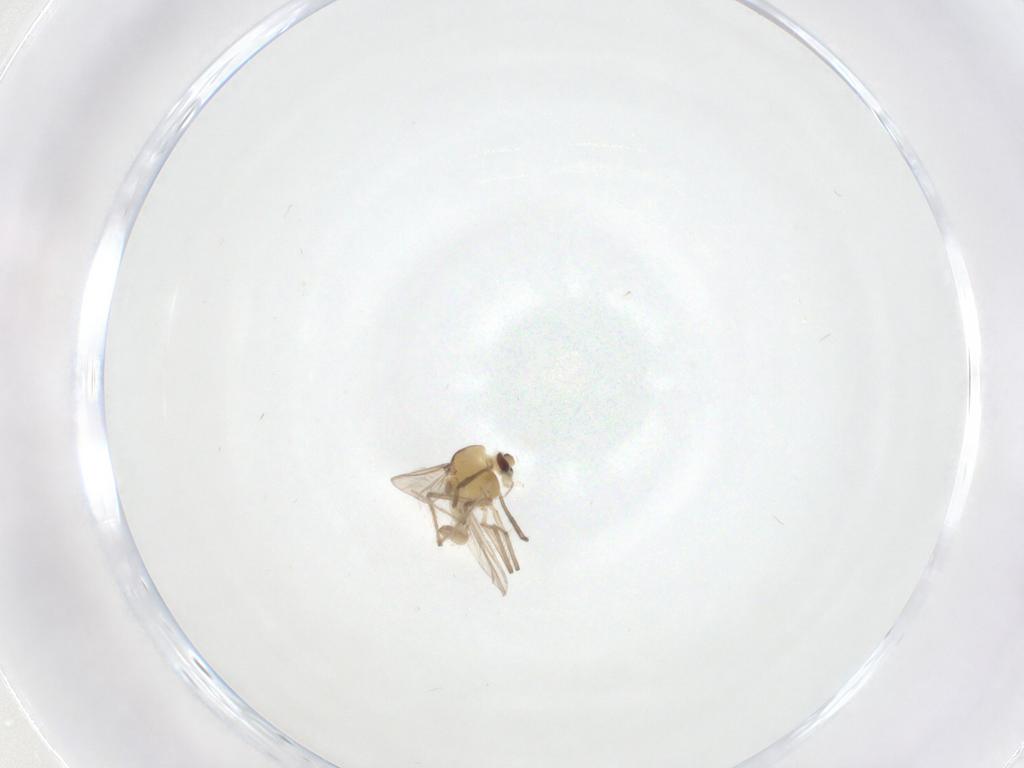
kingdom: Animalia
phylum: Arthropoda
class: Insecta
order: Diptera
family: Chironomidae
